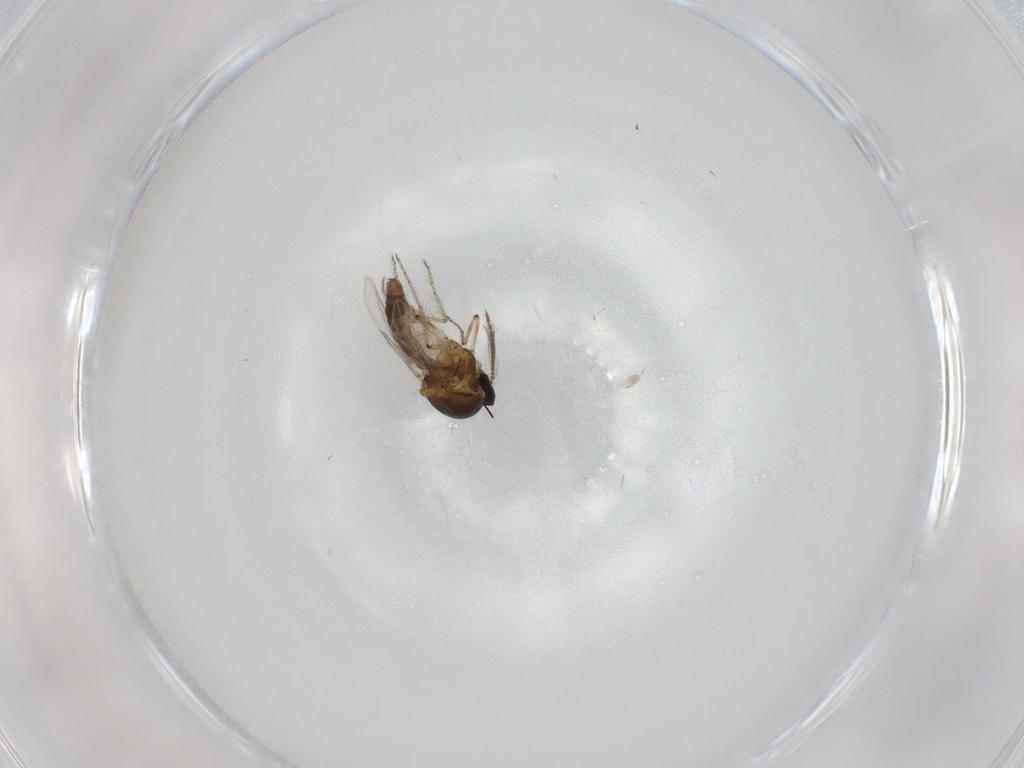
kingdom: Animalia
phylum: Arthropoda
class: Insecta
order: Diptera
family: Ceratopogonidae
